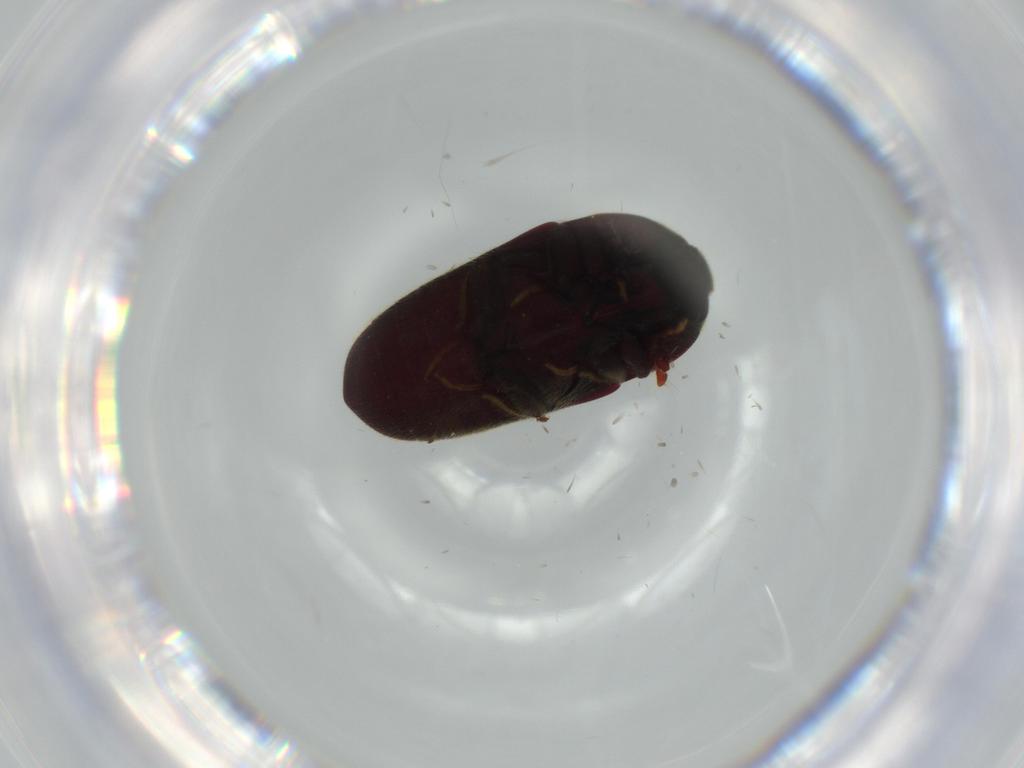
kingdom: Animalia
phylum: Arthropoda
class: Insecta
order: Coleoptera
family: Throscidae
